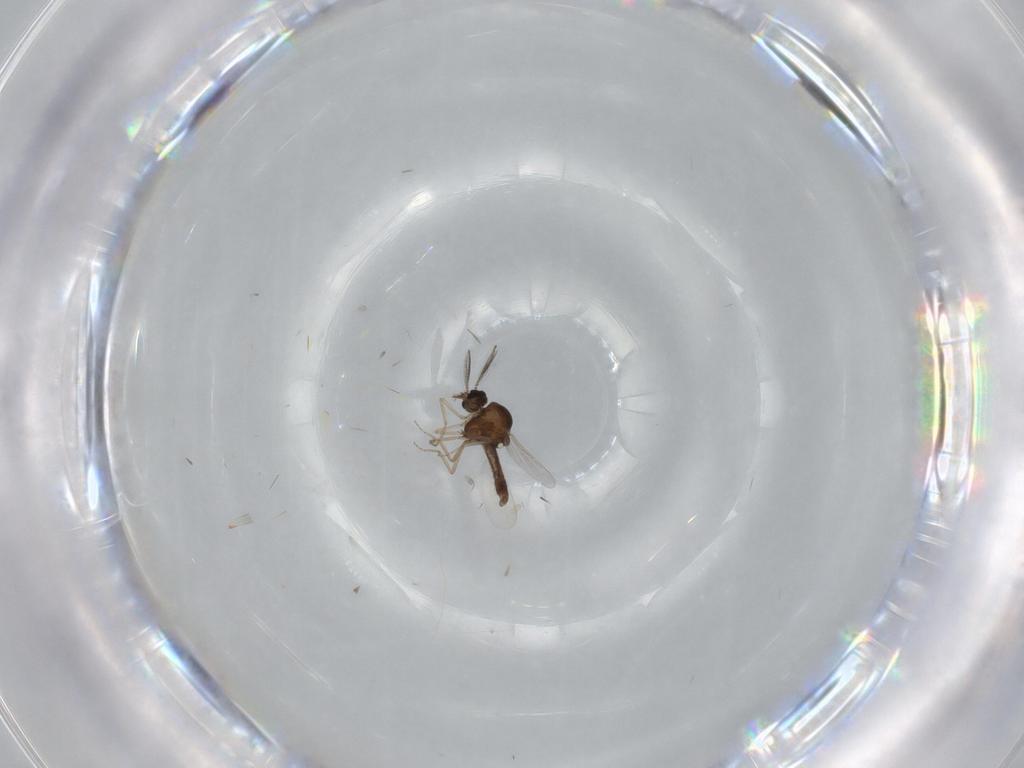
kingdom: Animalia
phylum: Arthropoda
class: Insecta
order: Diptera
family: Ceratopogonidae
